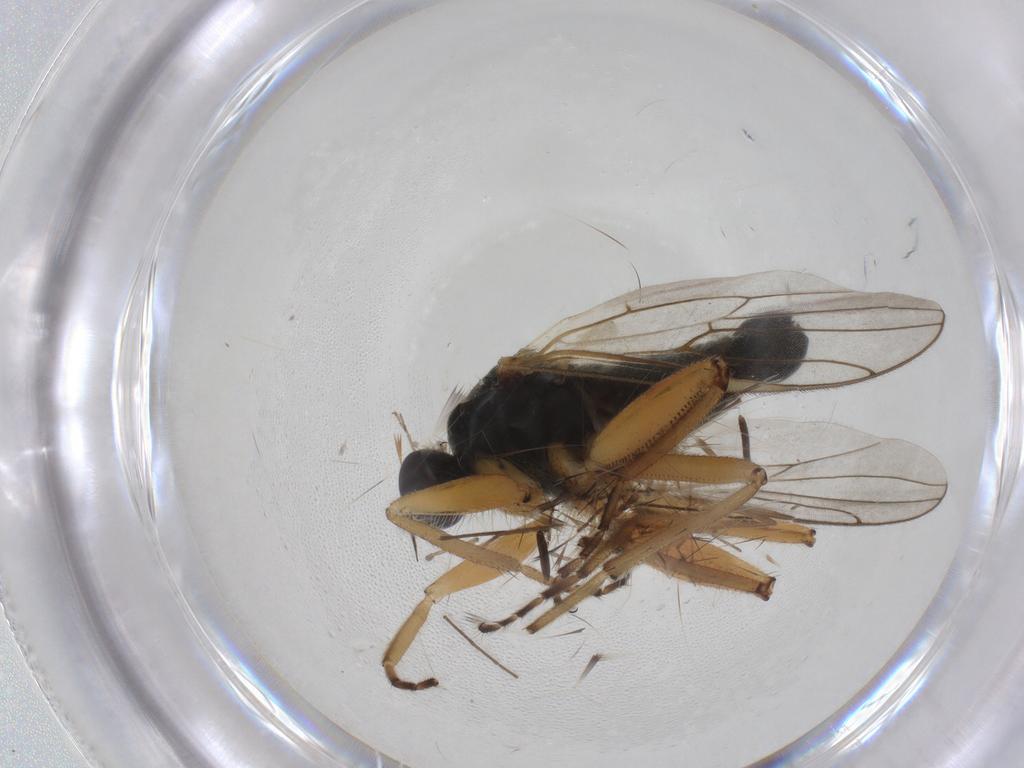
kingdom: Animalia
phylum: Arthropoda
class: Insecta
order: Diptera
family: Hybotidae
